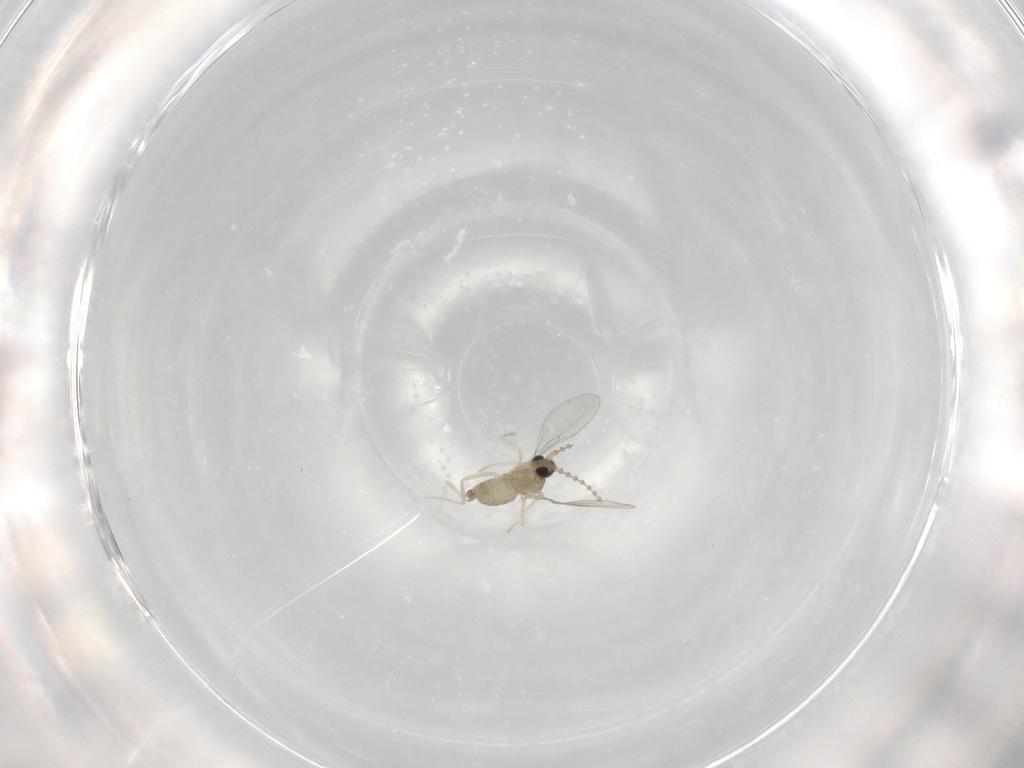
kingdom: Animalia
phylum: Arthropoda
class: Insecta
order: Diptera
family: Cecidomyiidae
